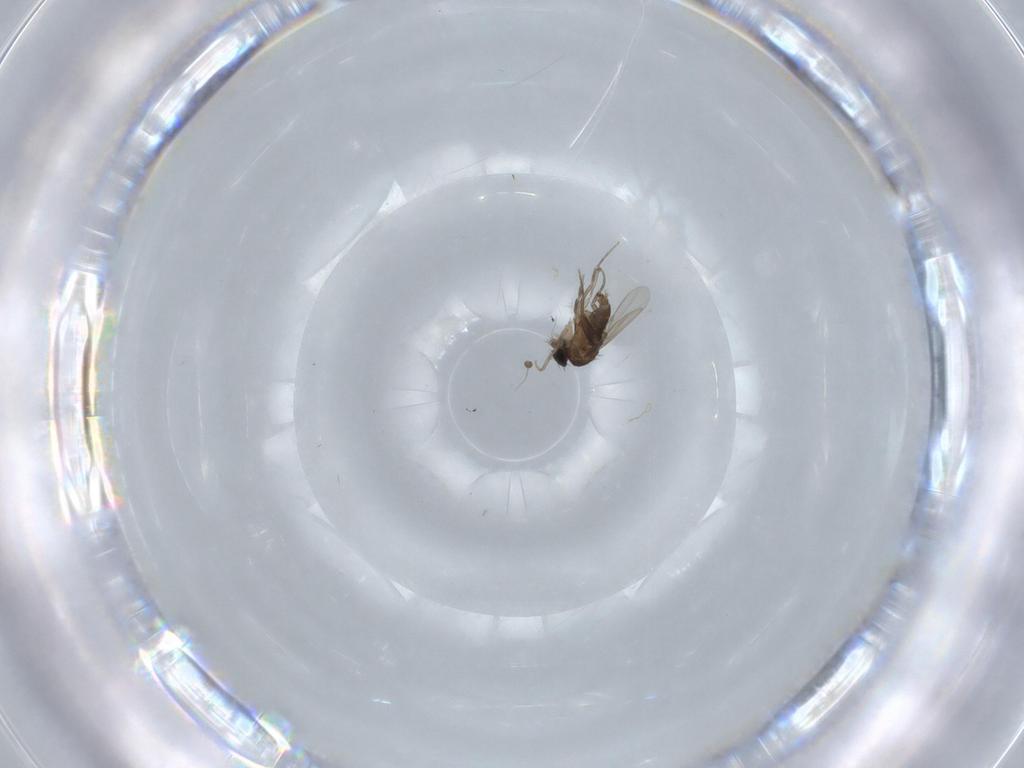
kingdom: Animalia
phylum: Arthropoda
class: Insecta
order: Diptera
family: Phoridae
